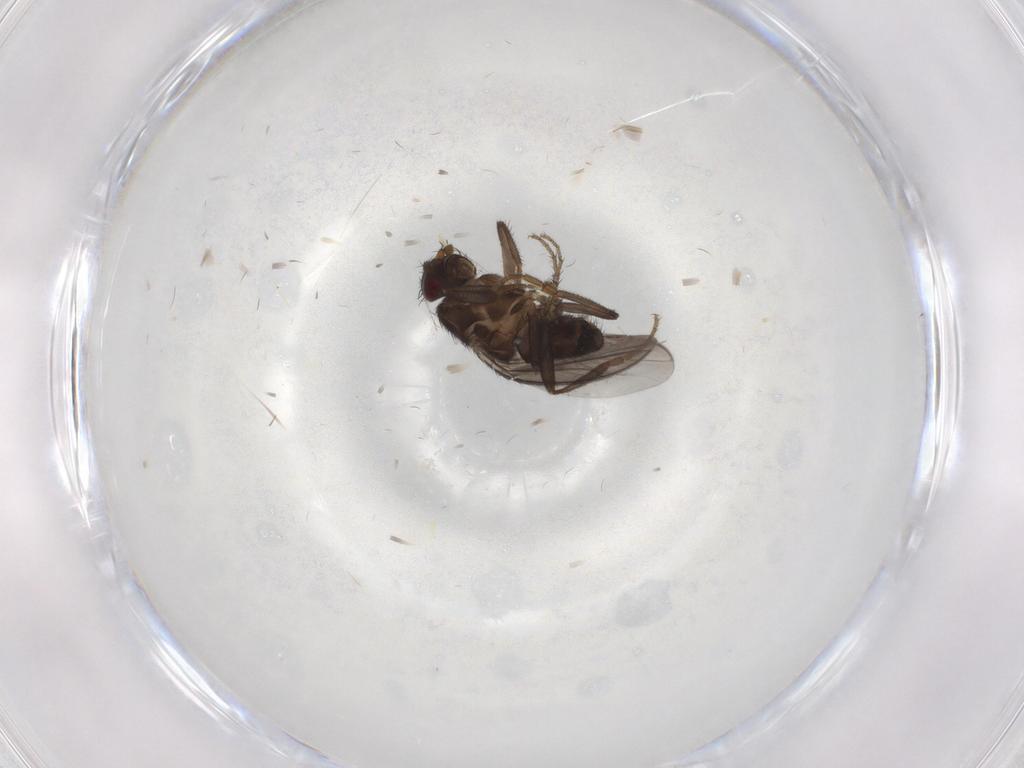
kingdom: Animalia
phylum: Arthropoda
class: Insecta
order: Diptera
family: Sphaeroceridae
